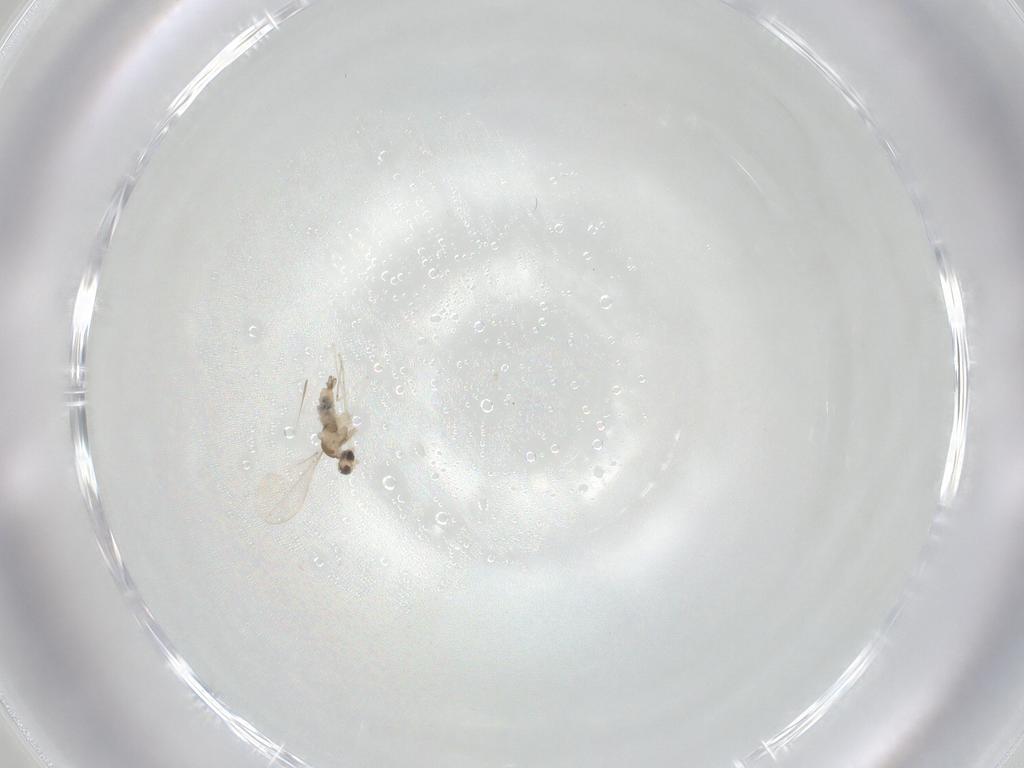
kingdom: Animalia
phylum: Arthropoda
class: Insecta
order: Diptera
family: Cecidomyiidae
